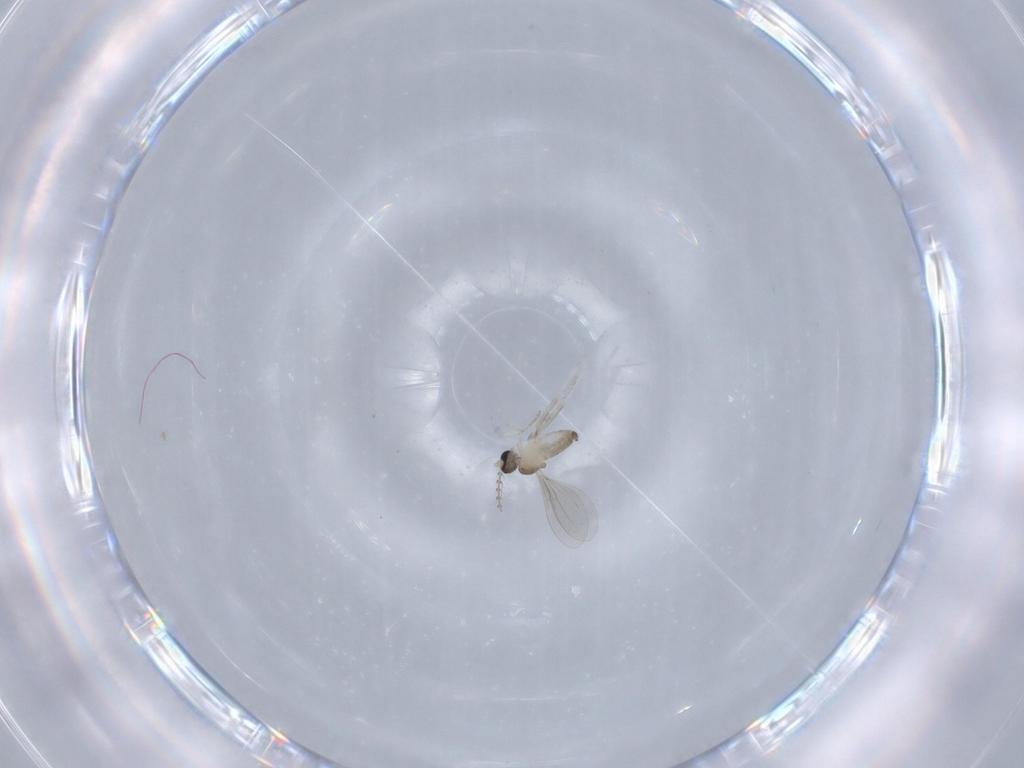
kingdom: Animalia
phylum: Arthropoda
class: Insecta
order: Diptera
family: Cecidomyiidae
